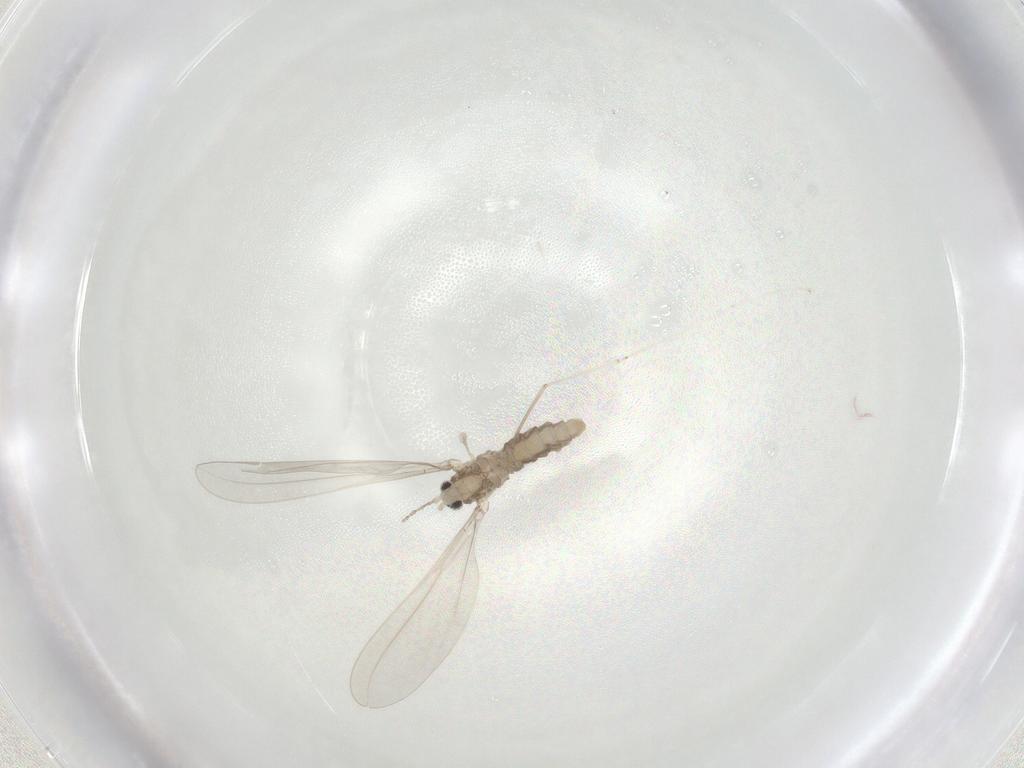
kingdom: Animalia
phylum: Arthropoda
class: Insecta
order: Diptera
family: Cecidomyiidae
